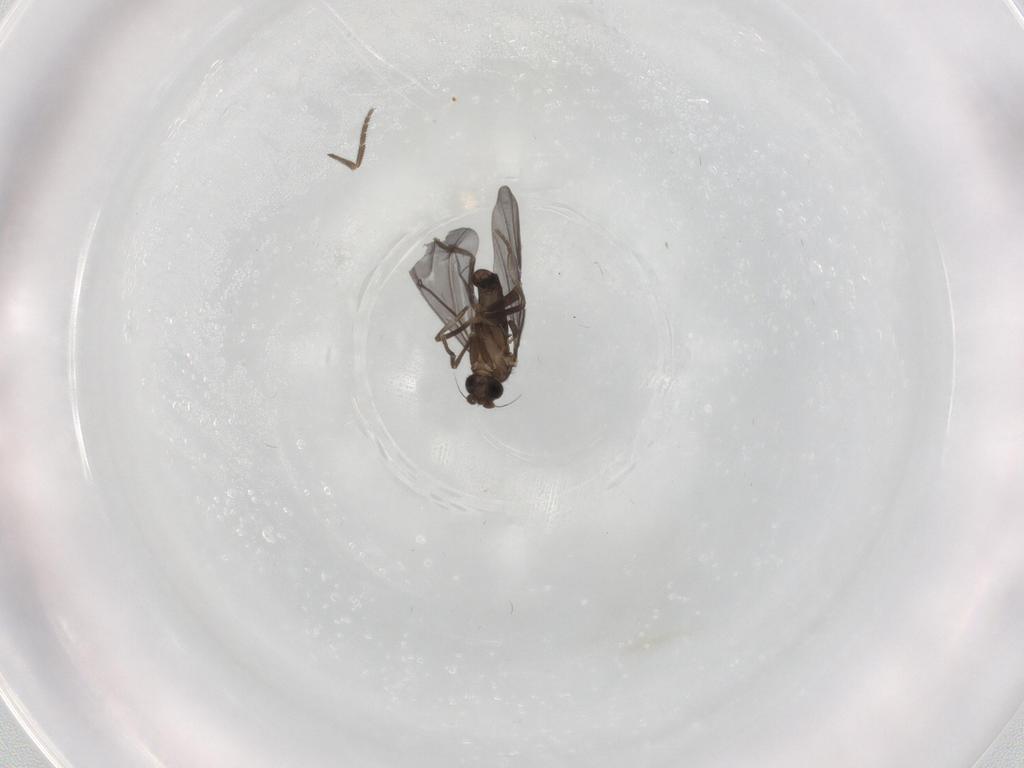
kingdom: Animalia
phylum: Arthropoda
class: Insecta
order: Diptera
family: Phoridae
